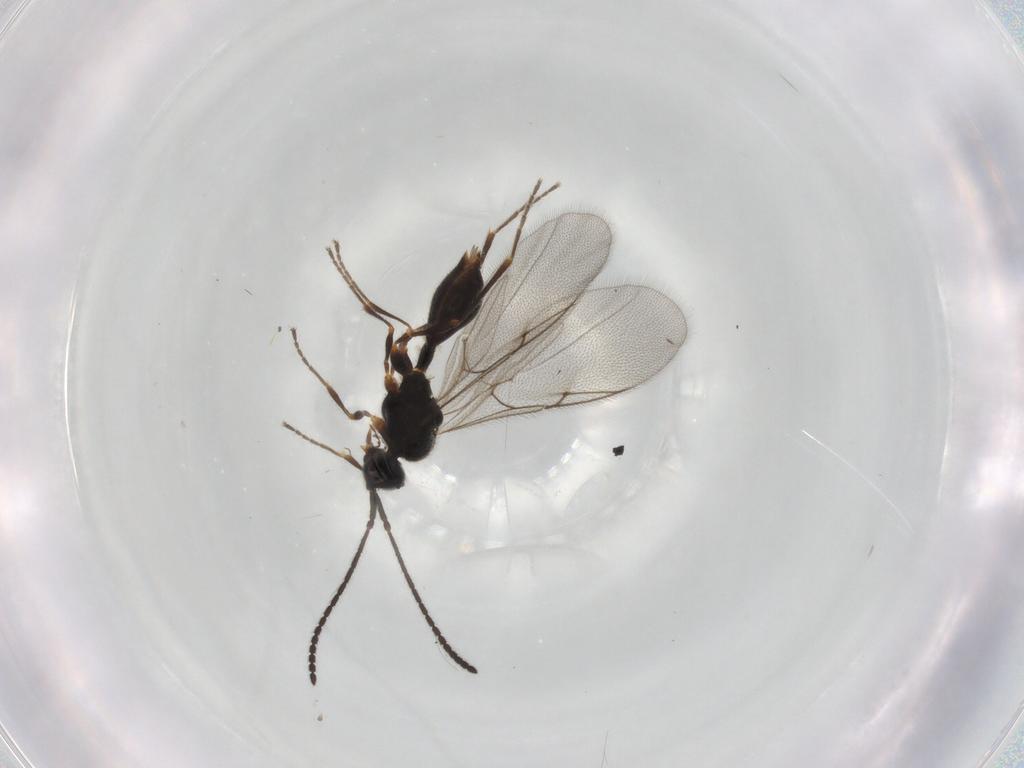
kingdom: Animalia
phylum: Arthropoda
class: Insecta
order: Hymenoptera
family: Diapriidae
